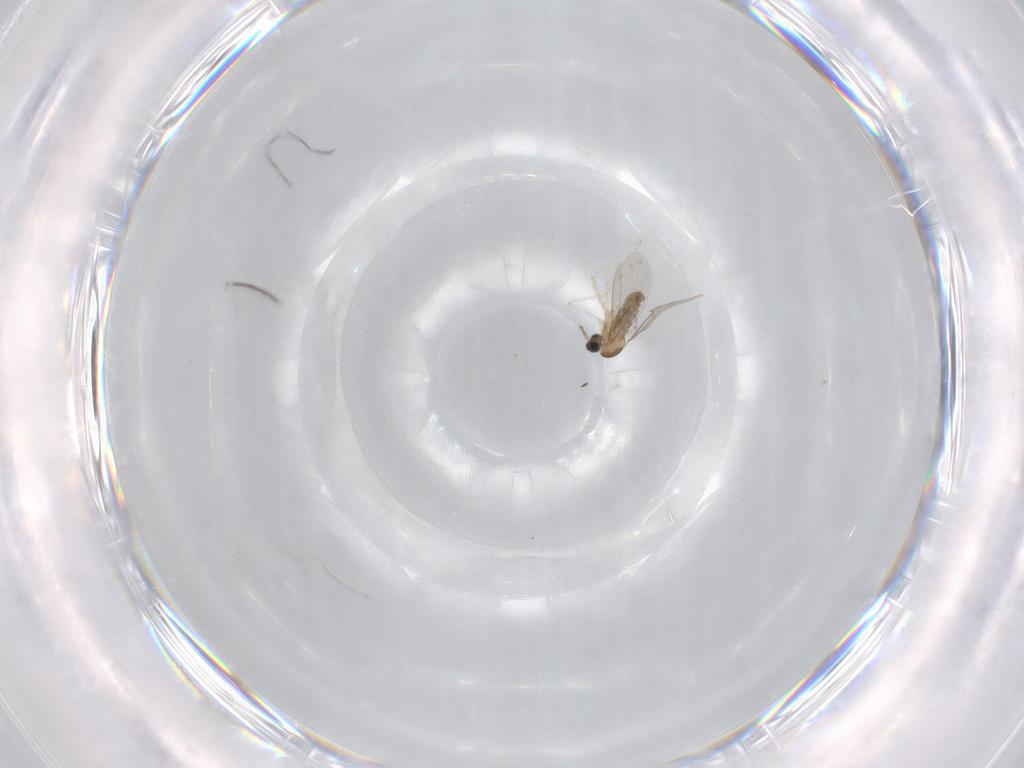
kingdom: Animalia
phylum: Arthropoda
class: Insecta
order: Diptera
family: Cecidomyiidae
